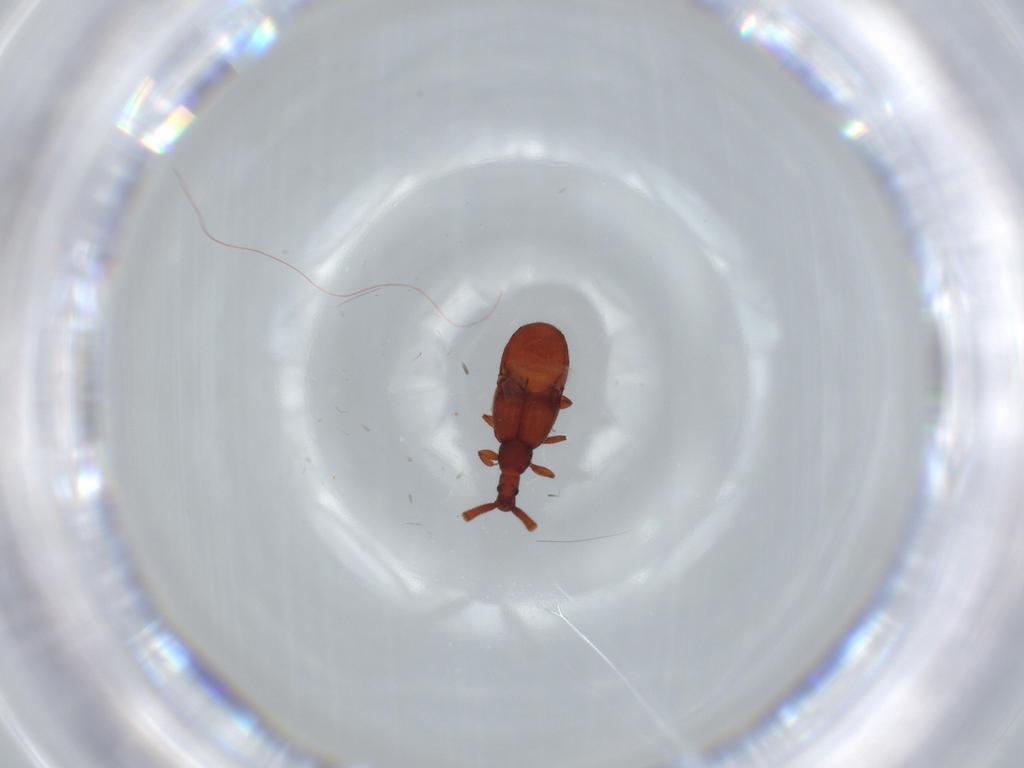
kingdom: Animalia
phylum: Arthropoda
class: Insecta
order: Coleoptera
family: Staphylinidae
